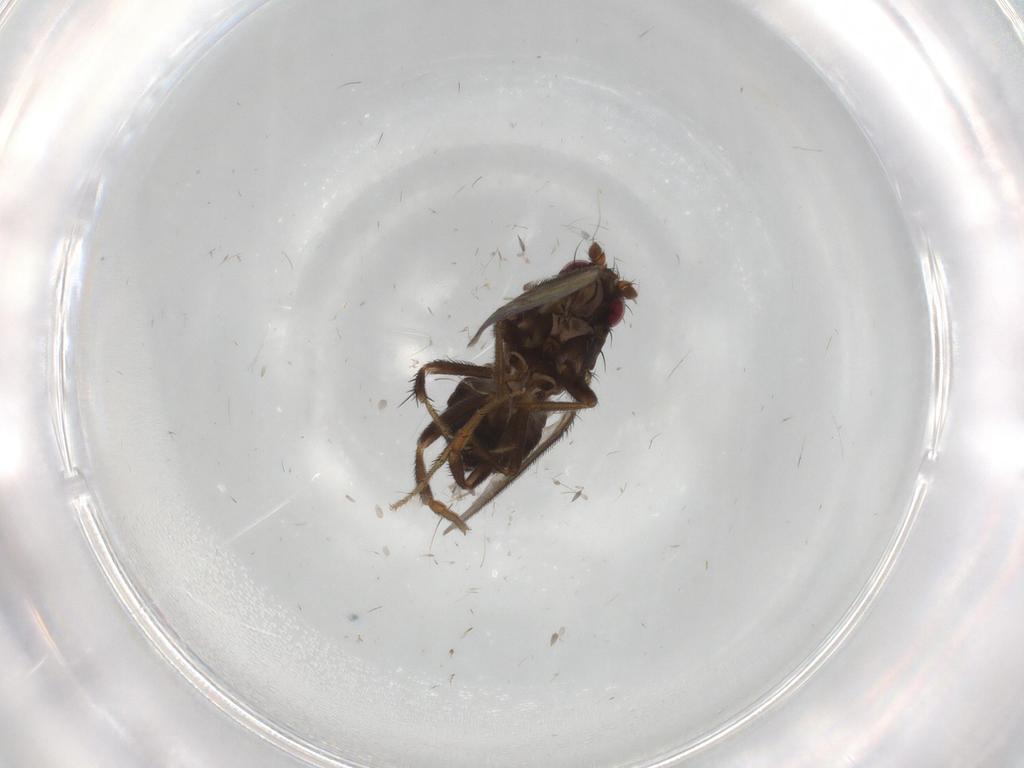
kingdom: Animalia
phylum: Arthropoda
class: Insecta
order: Diptera
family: Sphaeroceridae
